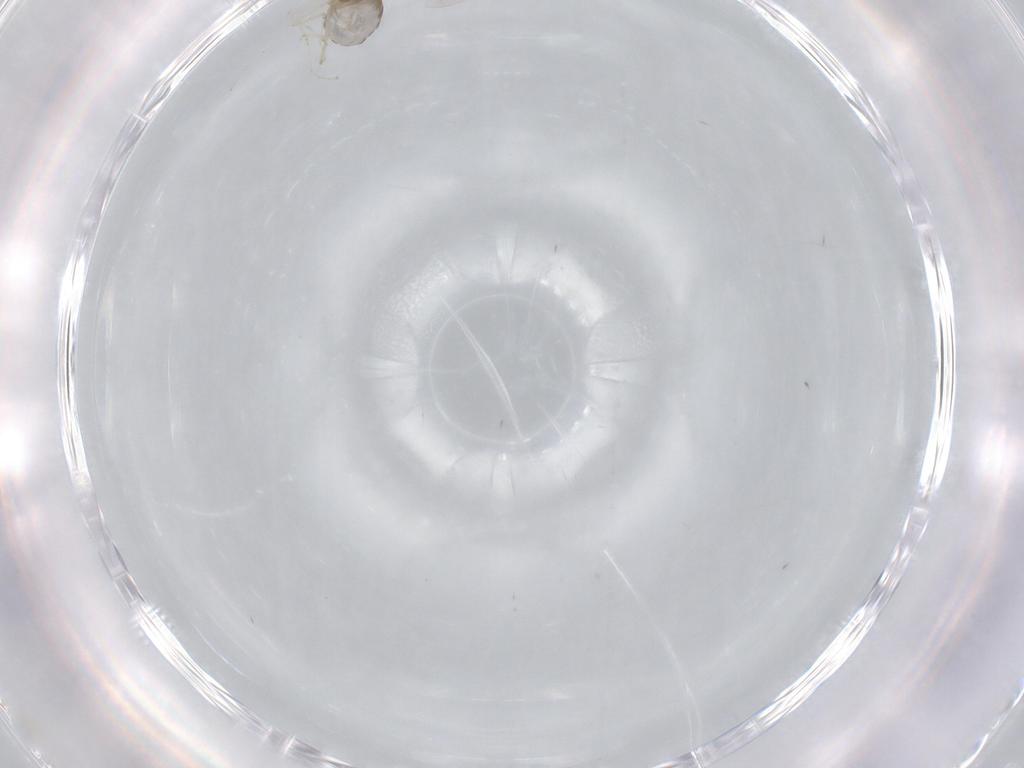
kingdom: Animalia
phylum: Arthropoda
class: Insecta
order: Diptera
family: Cecidomyiidae
